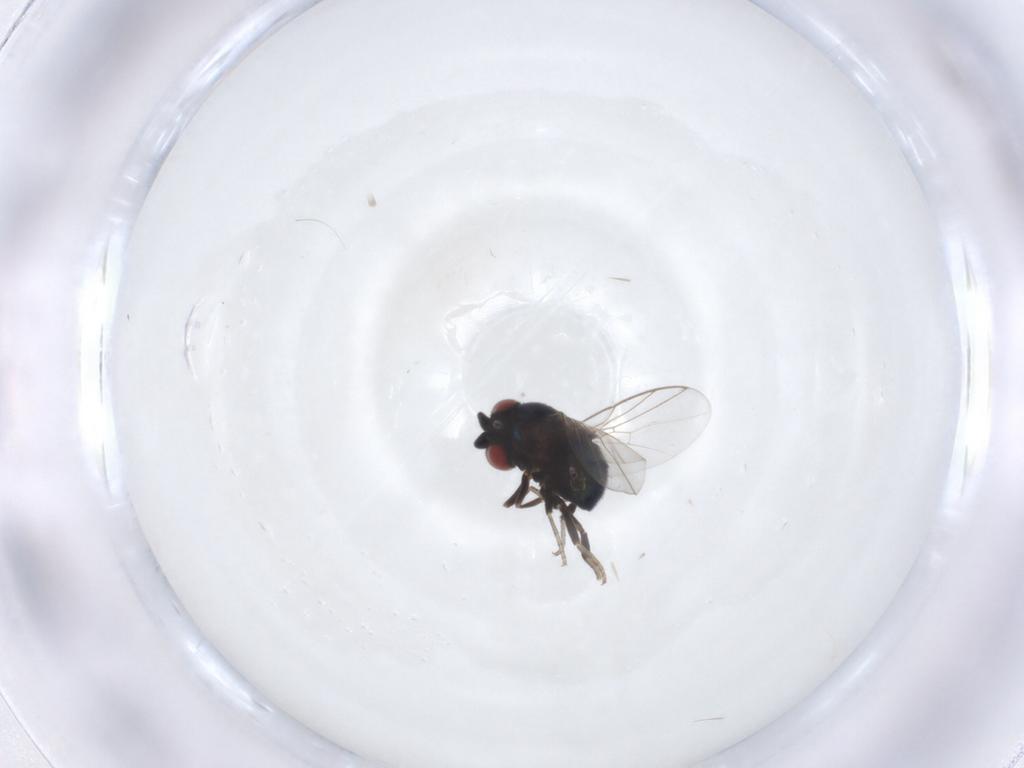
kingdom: Animalia
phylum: Arthropoda
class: Insecta
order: Diptera
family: Cryptochetidae
